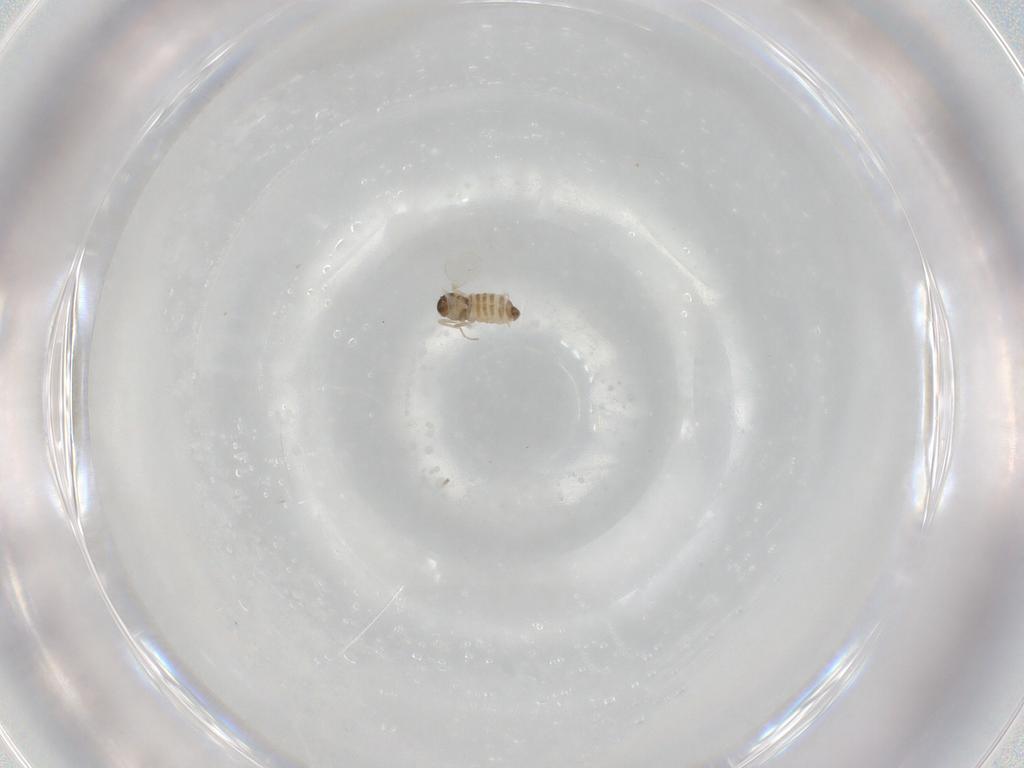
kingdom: Animalia
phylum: Arthropoda
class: Insecta
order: Diptera
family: Cecidomyiidae
